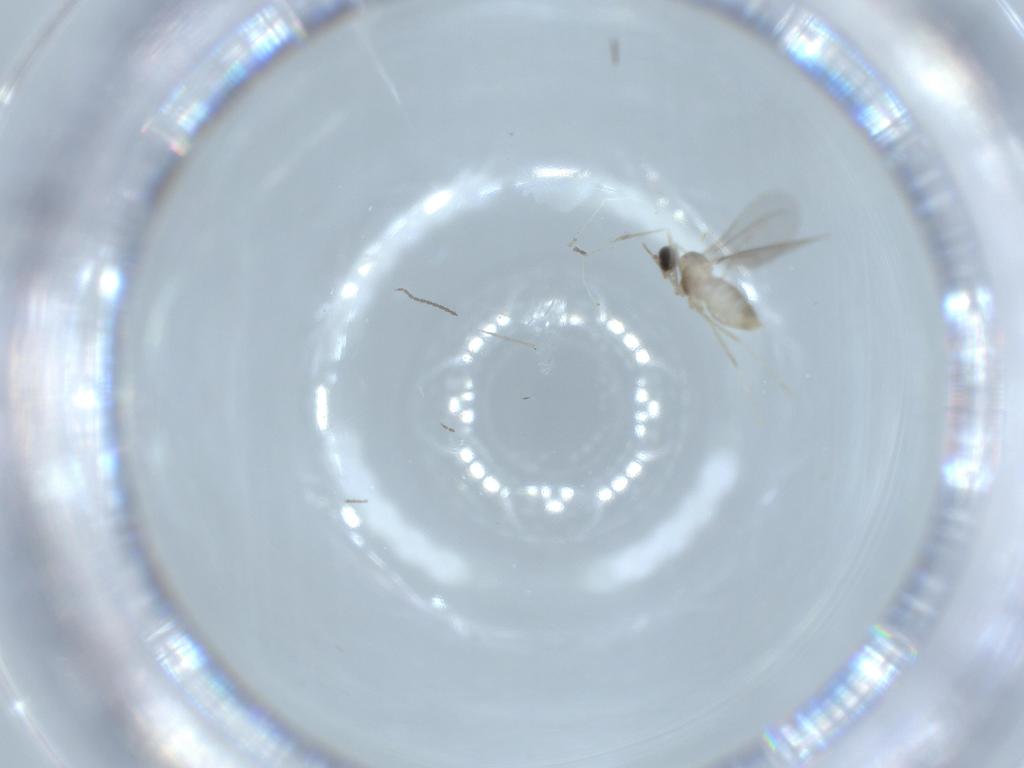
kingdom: Animalia
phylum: Arthropoda
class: Insecta
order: Diptera
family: Cecidomyiidae
